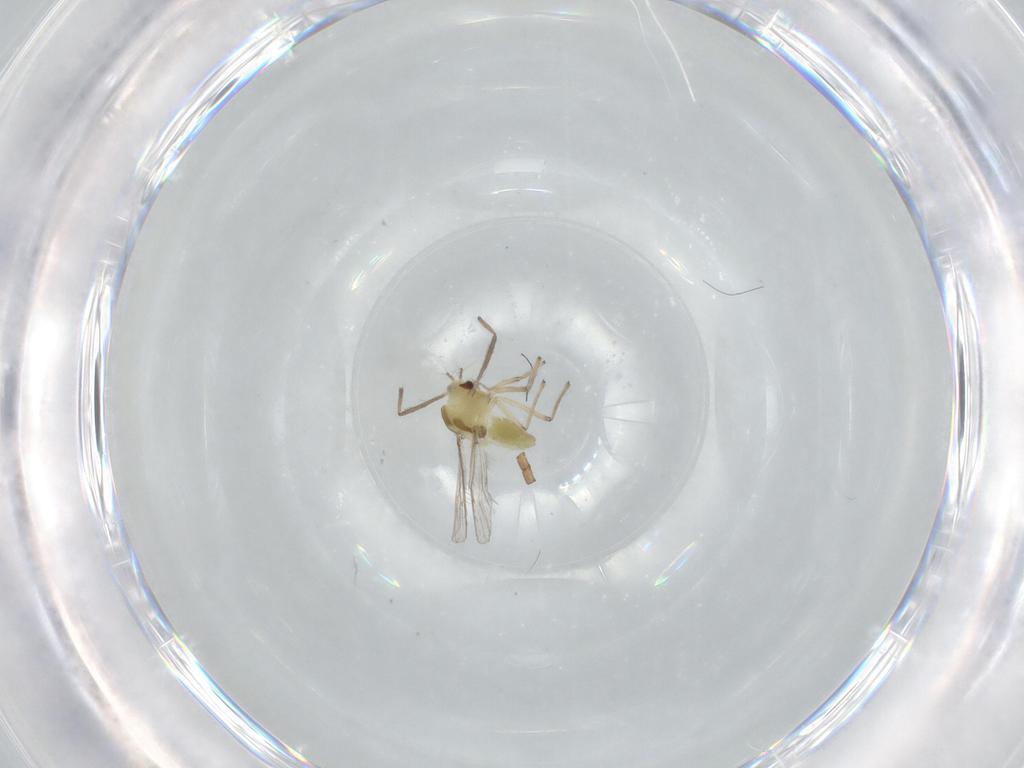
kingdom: Animalia
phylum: Arthropoda
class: Insecta
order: Diptera
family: Chironomidae
